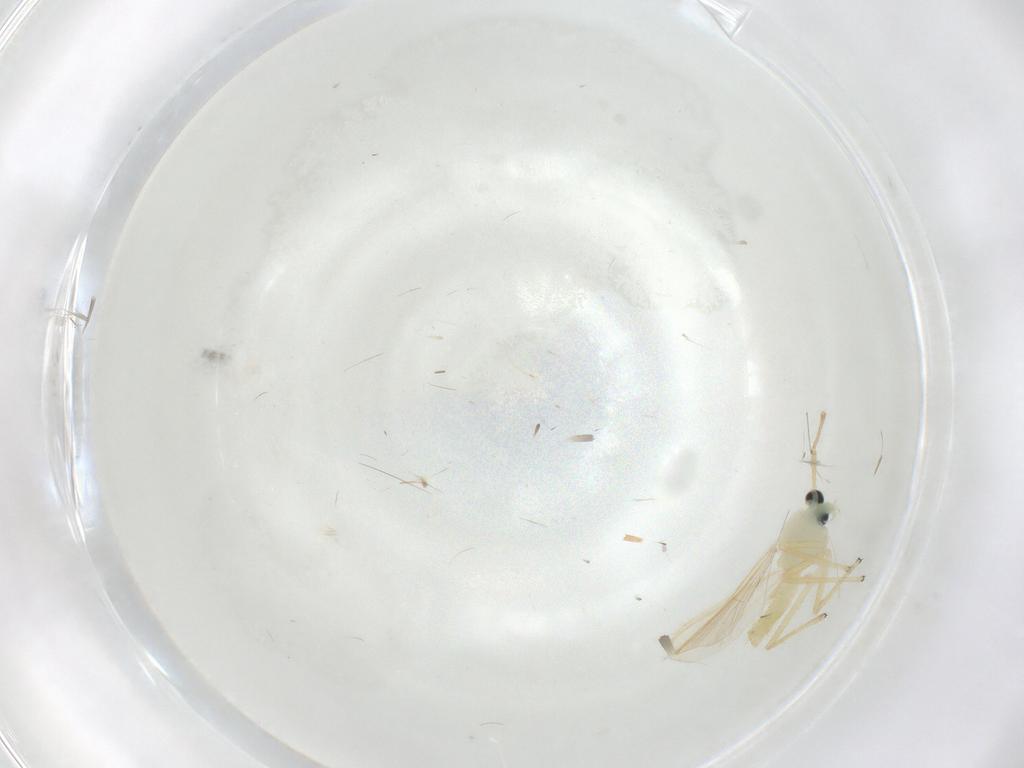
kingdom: Animalia
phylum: Arthropoda
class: Insecta
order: Diptera
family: Chironomidae
